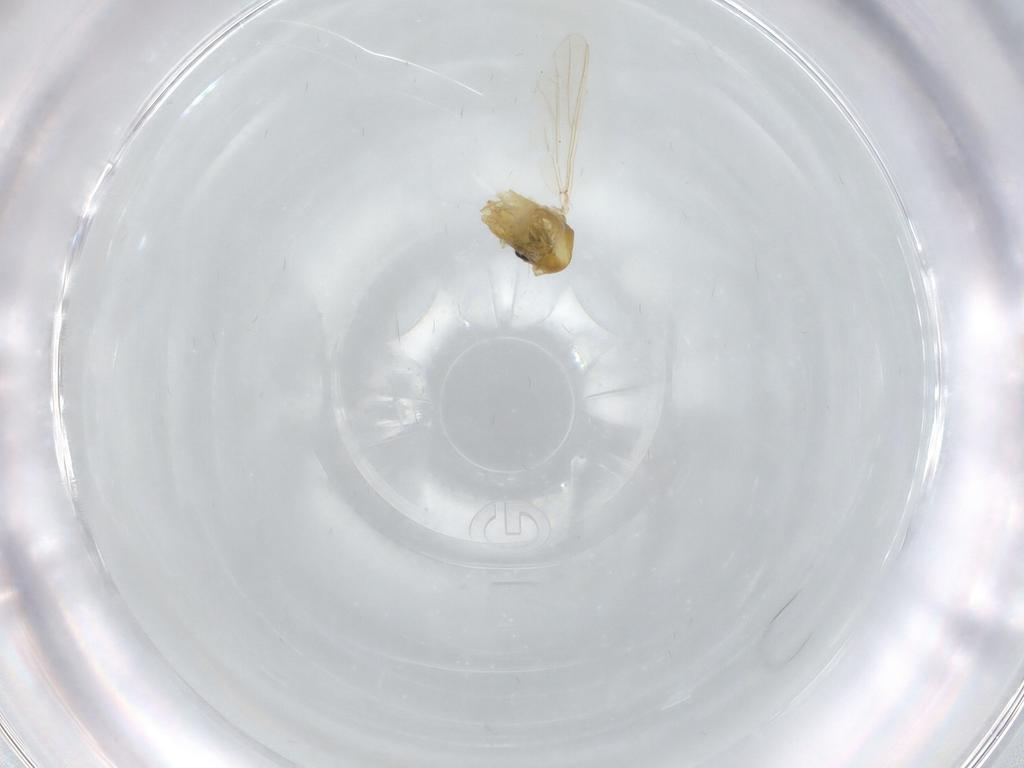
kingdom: Animalia
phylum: Arthropoda
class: Insecta
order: Diptera
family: Chironomidae
